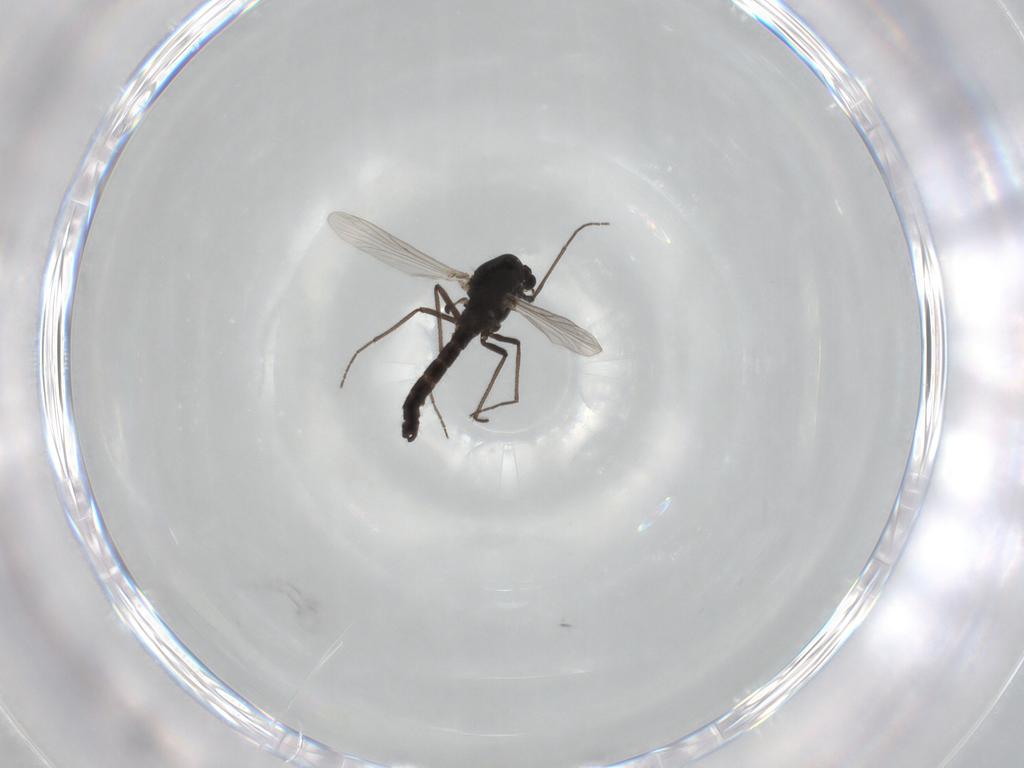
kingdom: Animalia
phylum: Arthropoda
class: Insecta
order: Diptera
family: Chironomidae
